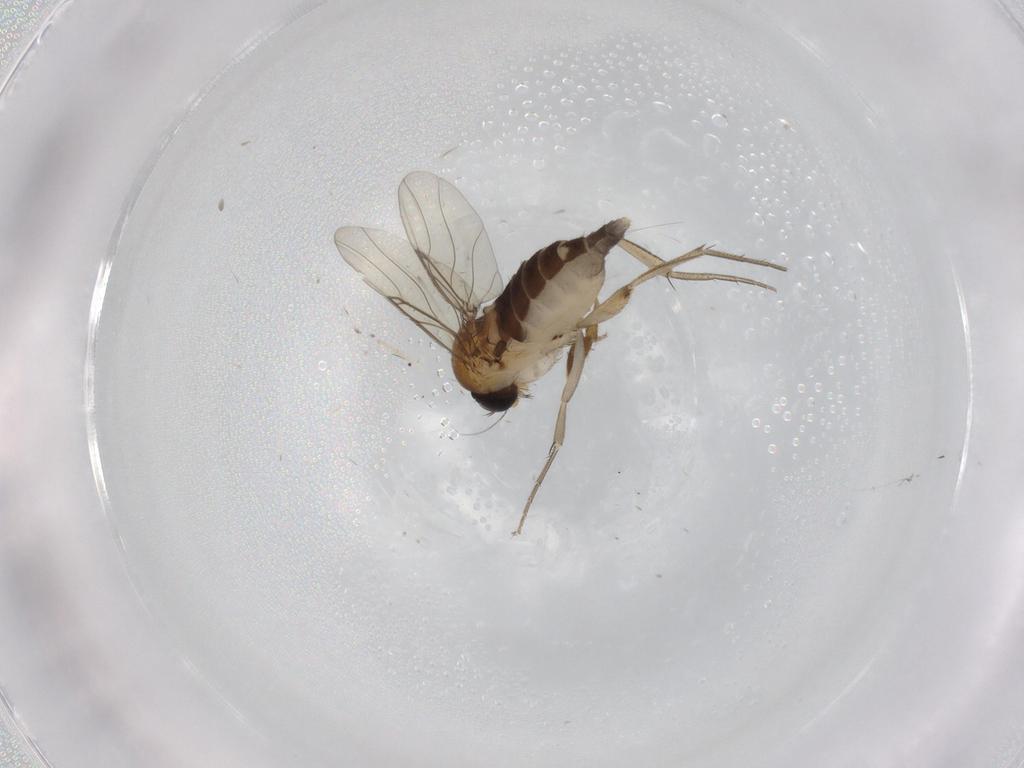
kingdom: Animalia
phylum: Arthropoda
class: Insecta
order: Diptera
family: Phoridae
